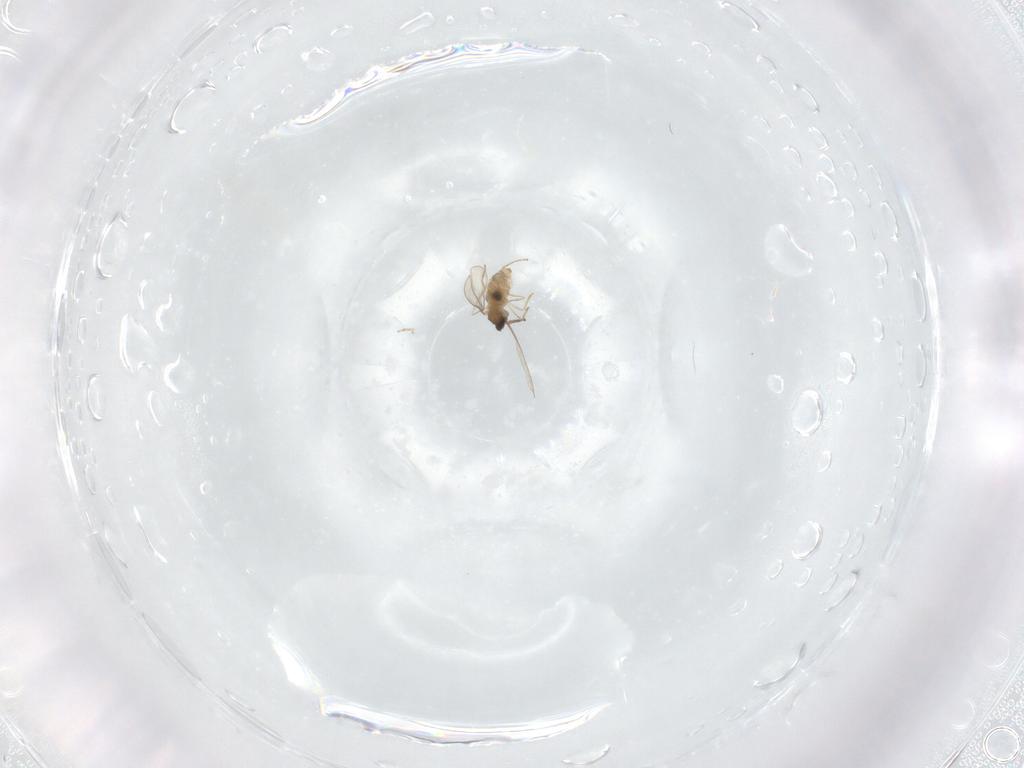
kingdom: Animalia
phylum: Arthropoda
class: Insecta
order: Diptera
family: Cecidomyiidae
